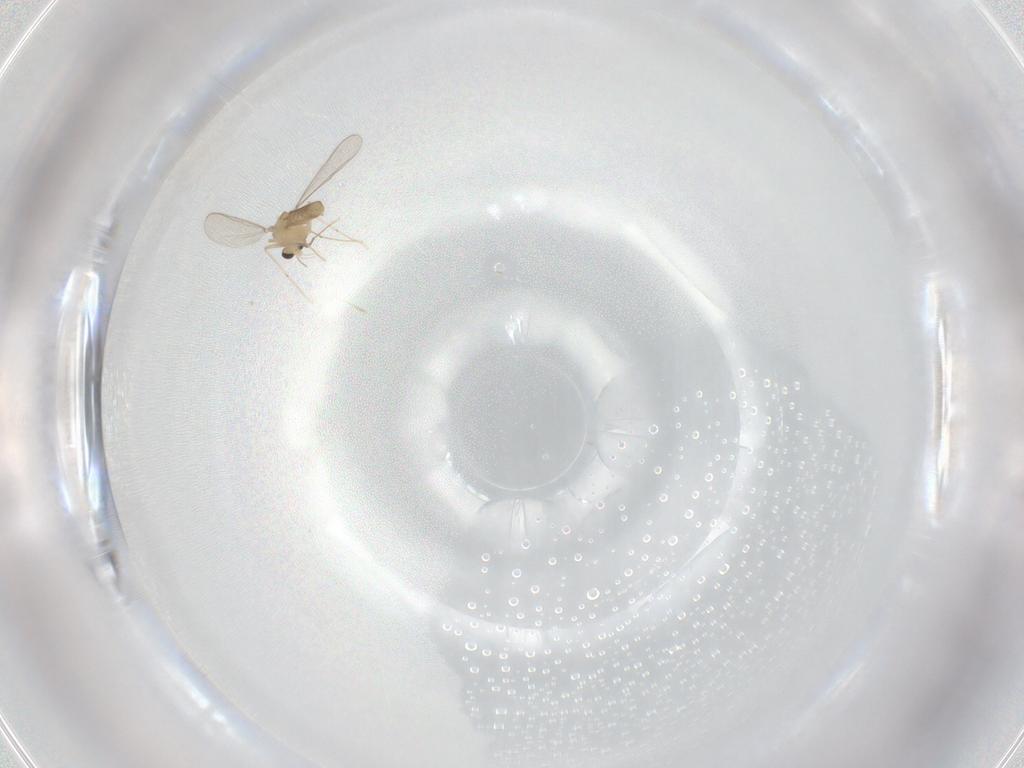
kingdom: Animalia
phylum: Arthropoda
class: Insecta
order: Diptera
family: Chironomidae
